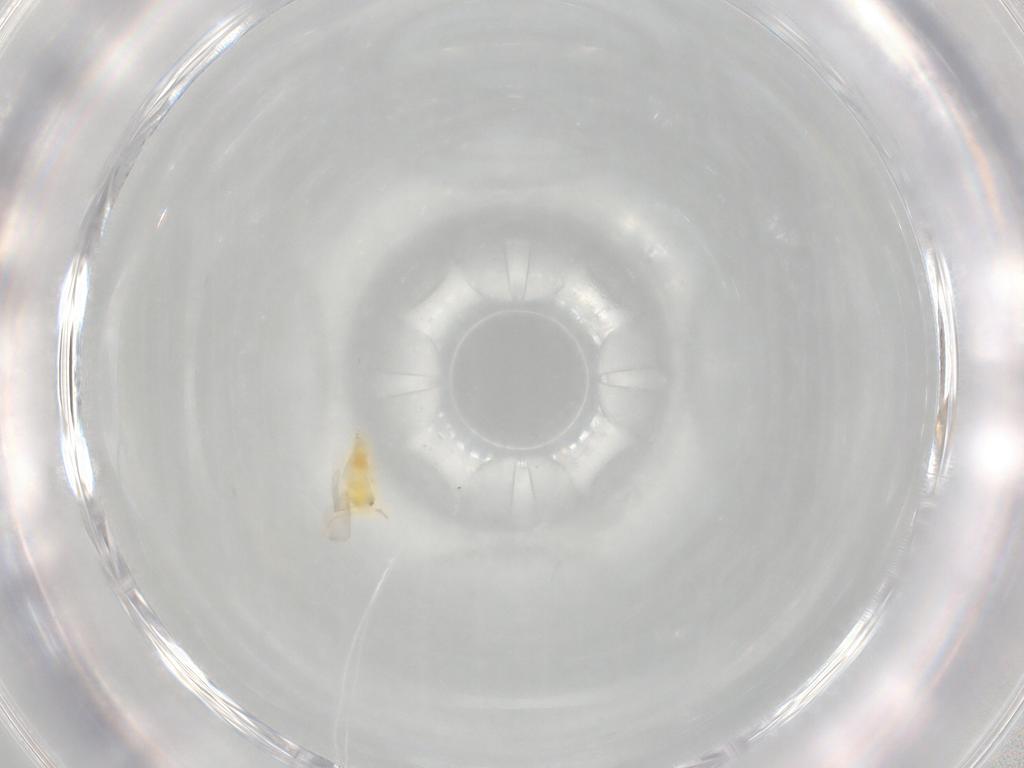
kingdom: Animalia
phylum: Arthropoda
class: Insecta
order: Hemiptera
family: Aleyrodidae
